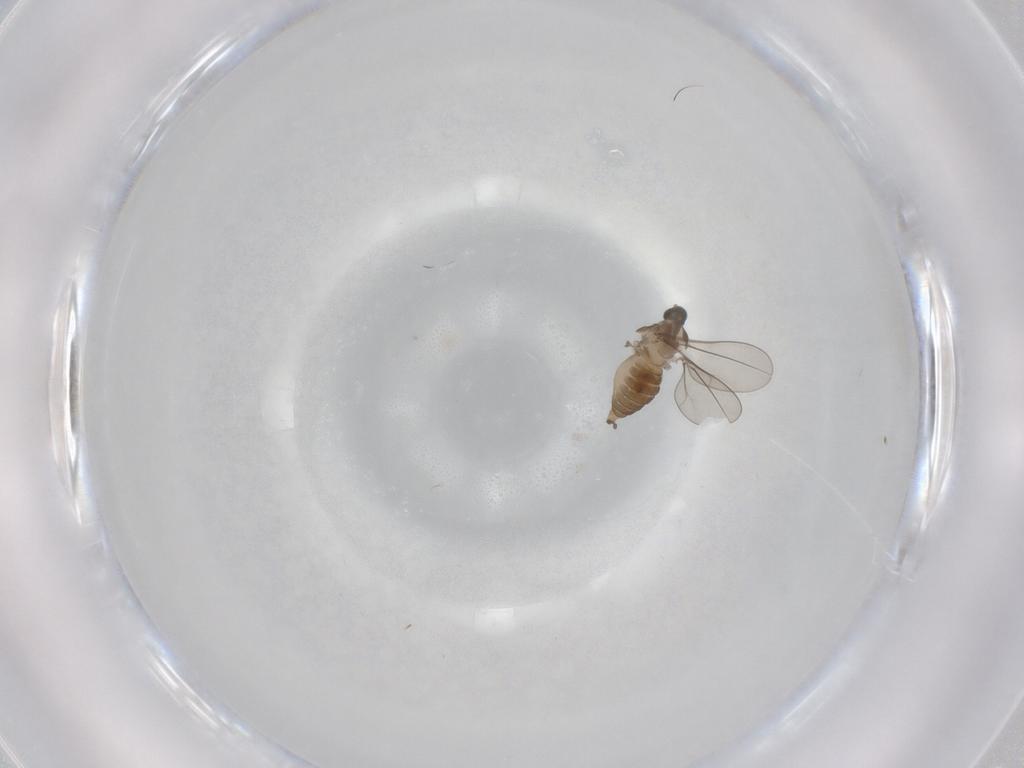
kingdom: Animalia
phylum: Arthropoda
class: Insecta
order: Diptera
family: Cecidomyiidae
